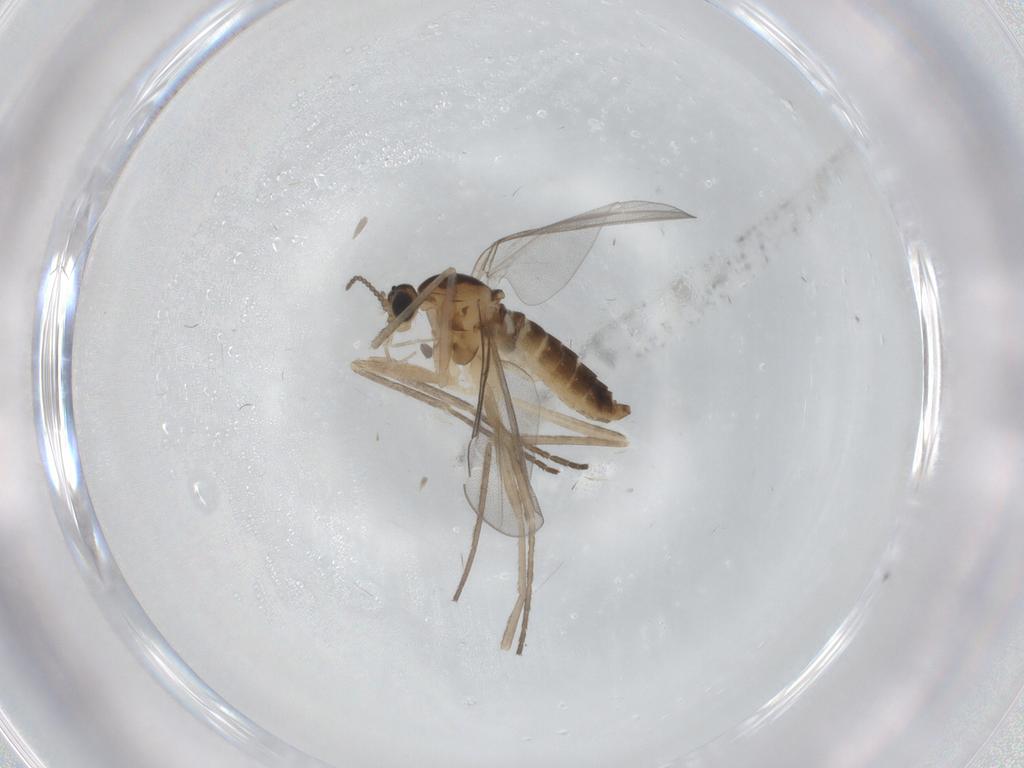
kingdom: Animalia
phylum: Arthropoda
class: Insecta
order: Diptera
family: Cecidomyiidae
